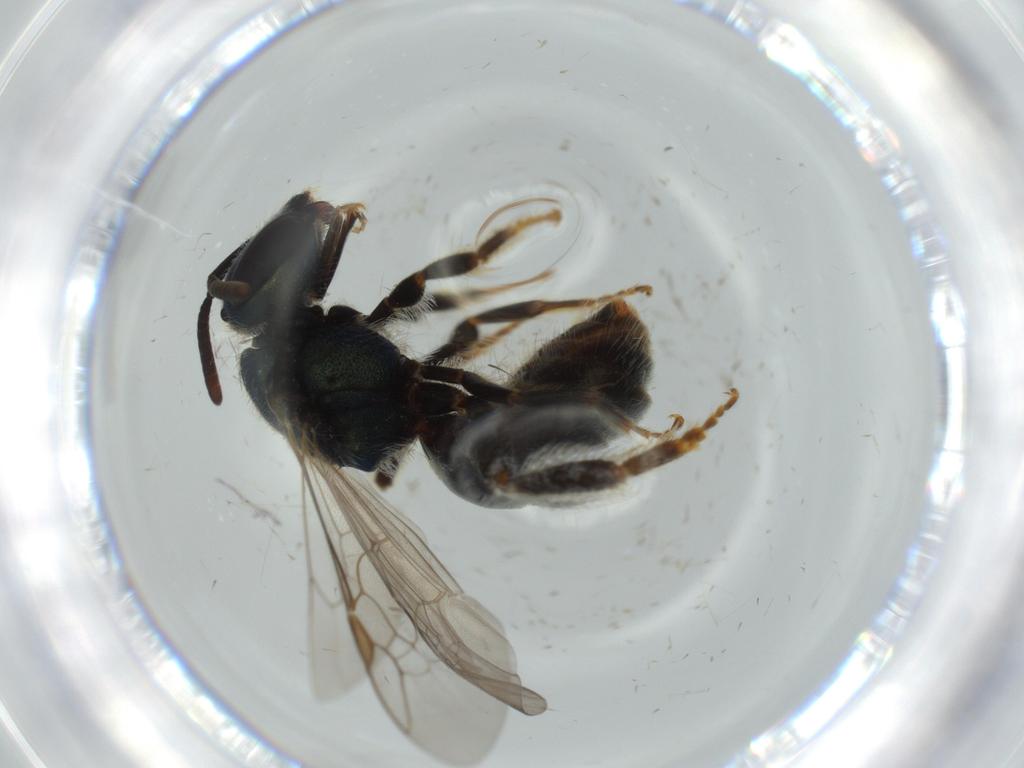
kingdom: Animalia
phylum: Arthropoda
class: Insecta
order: Hymenoptera
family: Halictidae
